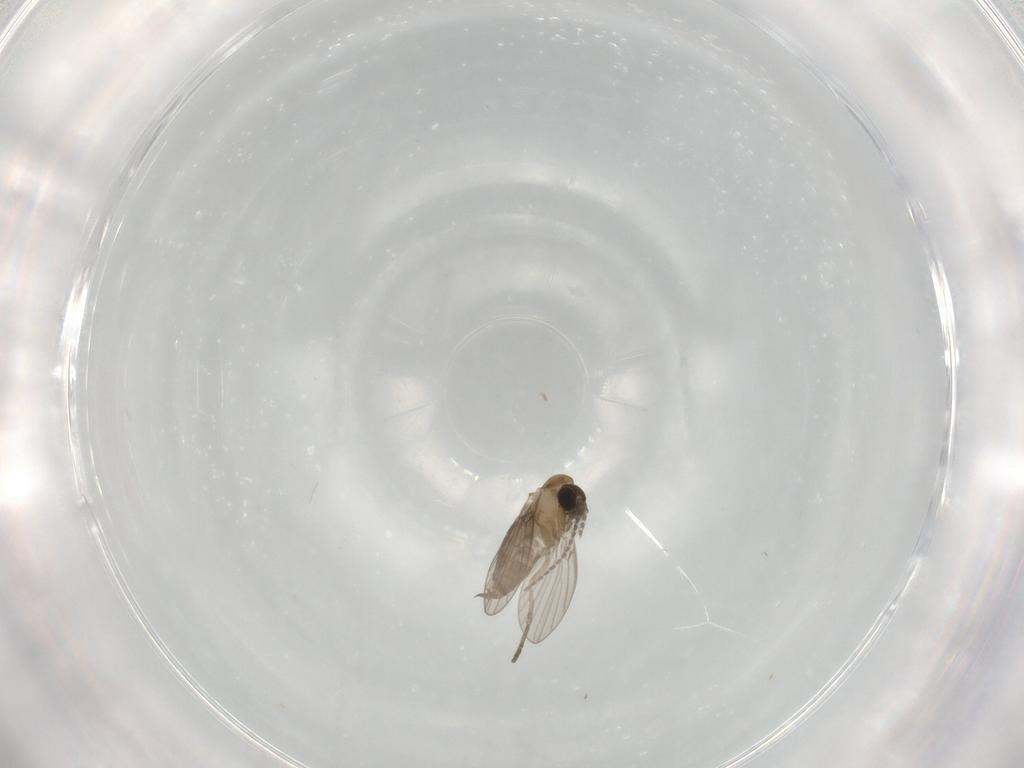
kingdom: Animalia
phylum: Arthropoda
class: Insecta
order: Diptera
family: Psychodidae
